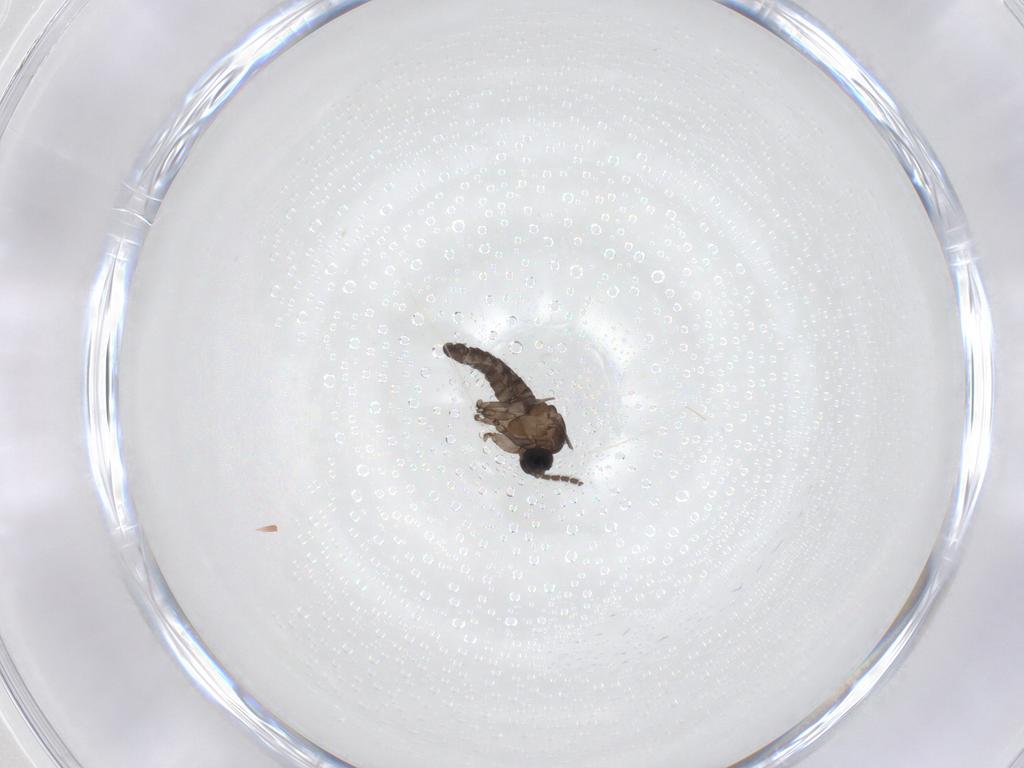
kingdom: Animalia
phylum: Arthropoda
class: Insecta
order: Diptera
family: Sciaridae
